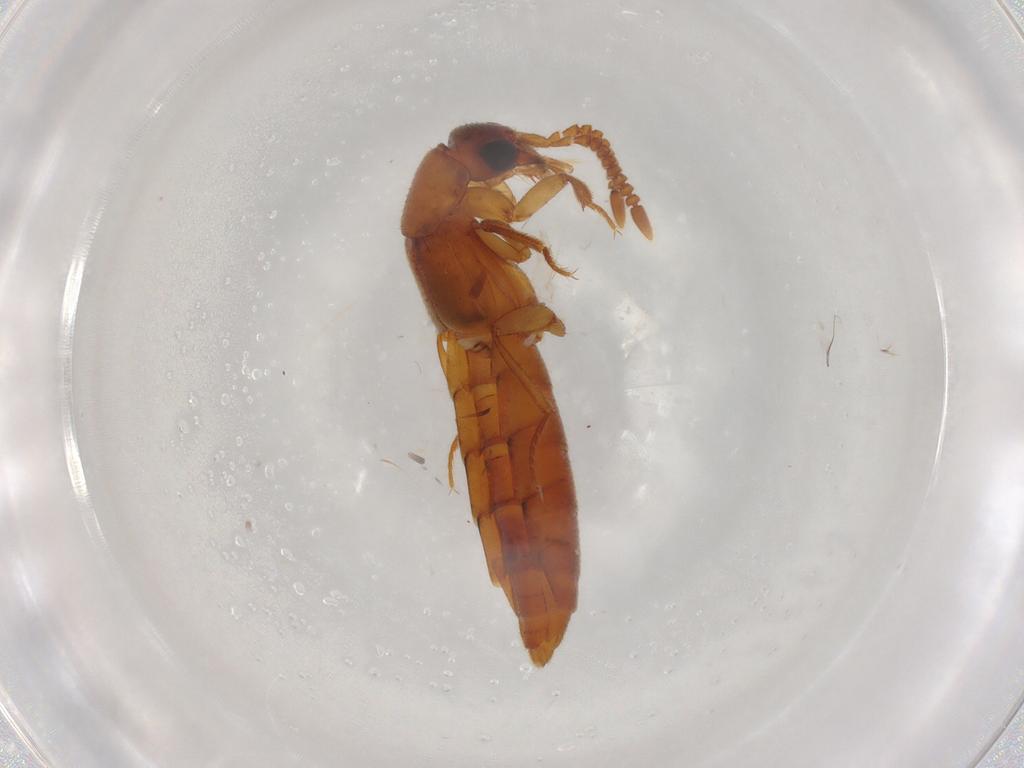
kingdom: Animalia
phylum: Arthropoda
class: Insecta
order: Coleoptera
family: Staphylinidae
